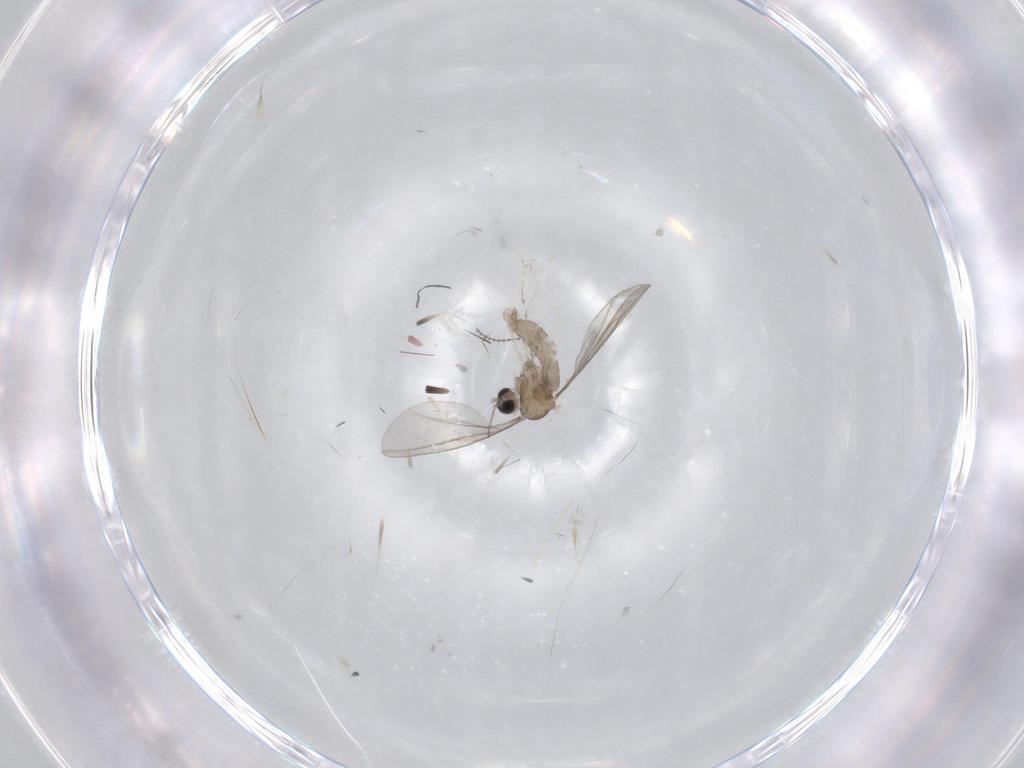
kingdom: Animalia
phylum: Arthropoda
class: Insecta
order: Diptera
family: Cecidomyiidae
